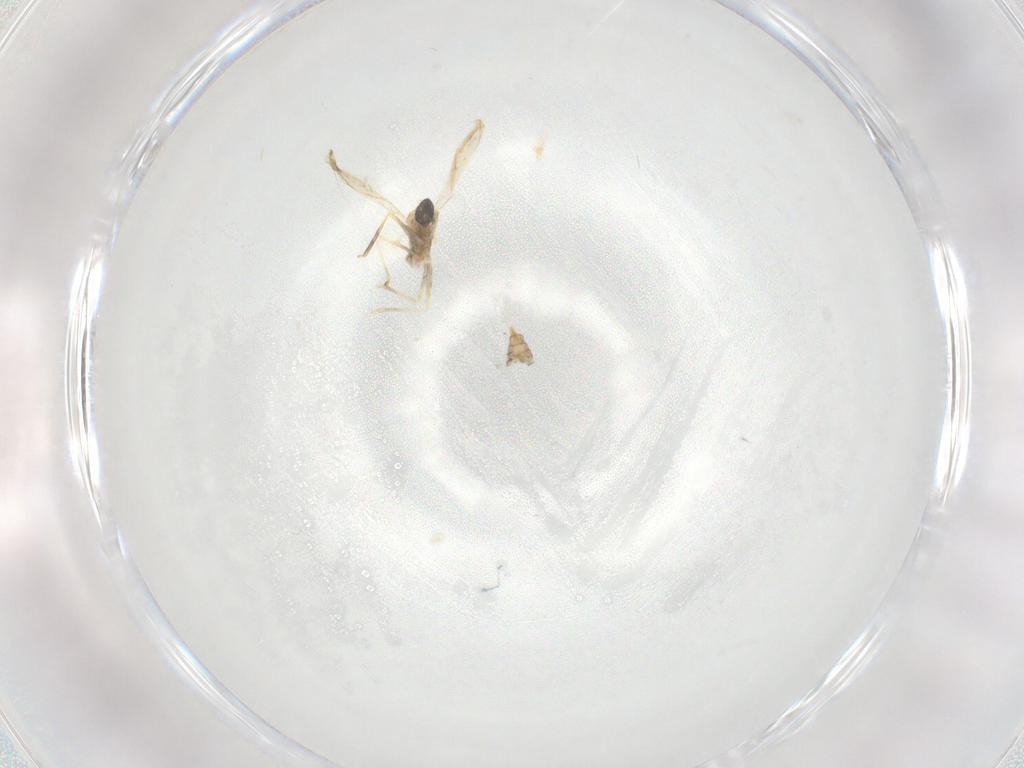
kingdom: Animalia
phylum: Arthropoda
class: Insecta
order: Diptera
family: Cecidomyiidae
